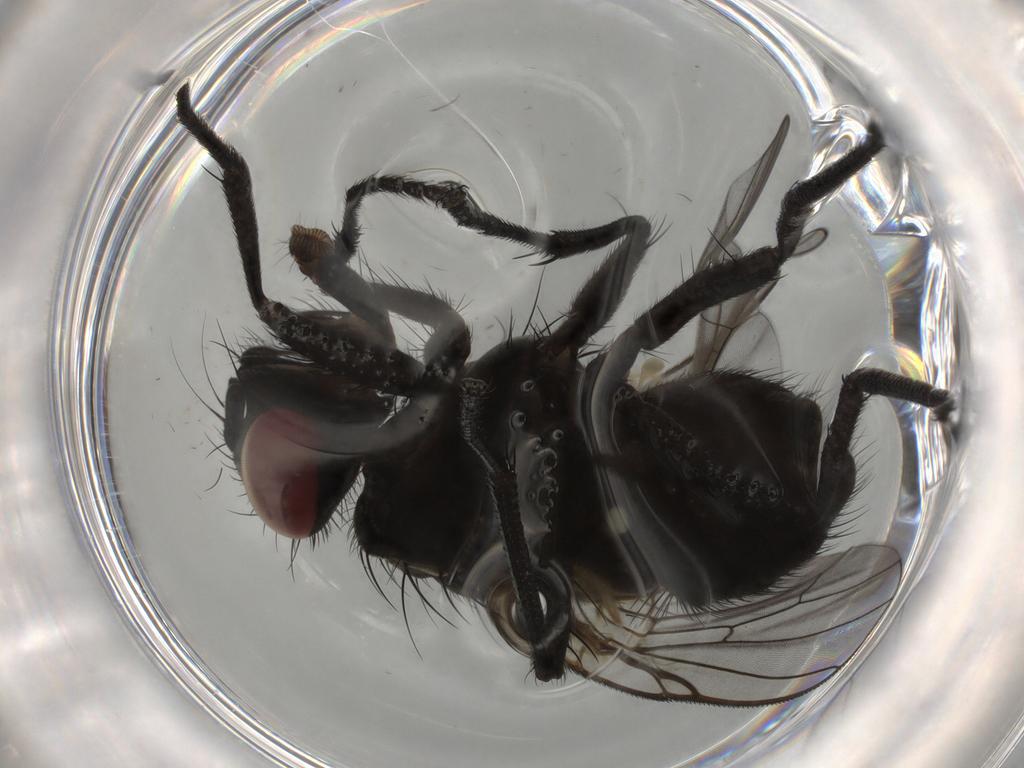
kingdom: Animalia
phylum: Arthropoda
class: Insecta
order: Diptera
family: Muscidae
